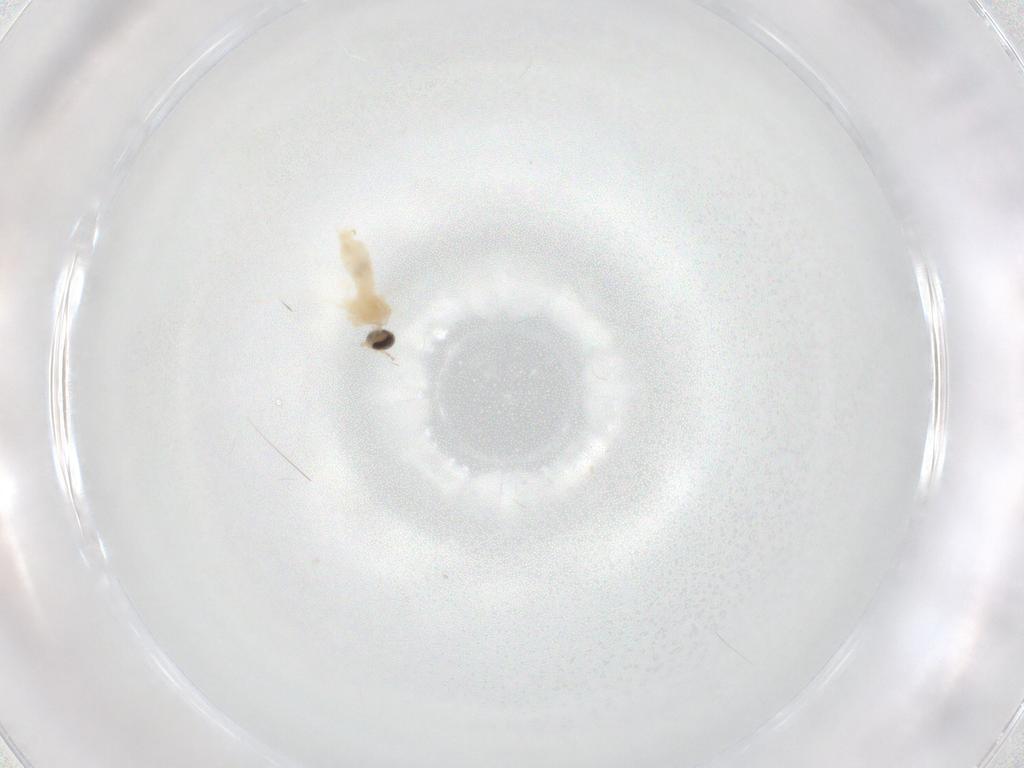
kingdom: Animalia
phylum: Arthropoda
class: Insecta
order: Diptera
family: Cecidomyiidae
